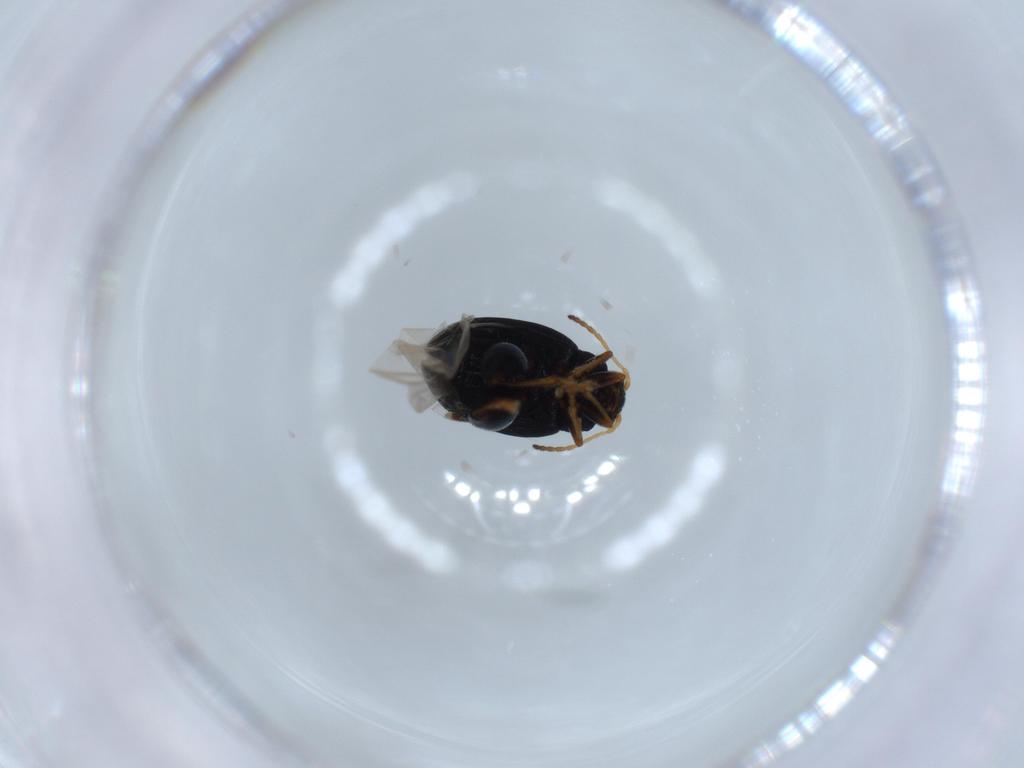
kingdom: Animalia
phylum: Arthropoda
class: Insecta
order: Coleoptera
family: Chrysomelidae
